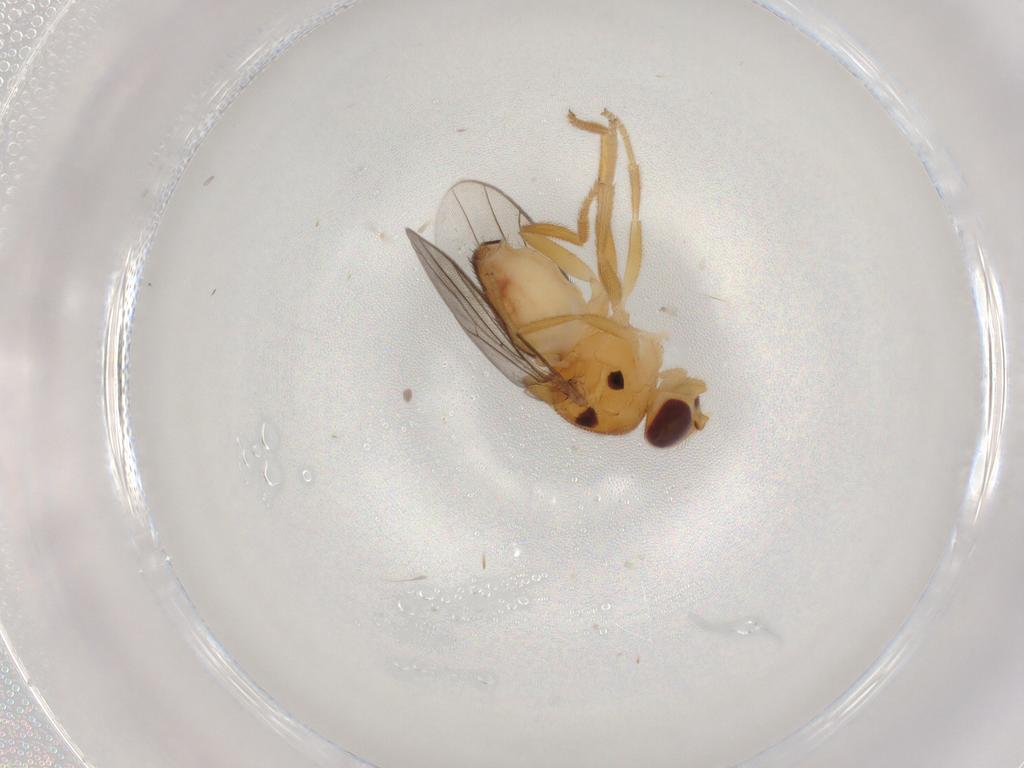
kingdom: Animalia
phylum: Arthropoda
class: Insecta
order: Diptera
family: Chloropidae
